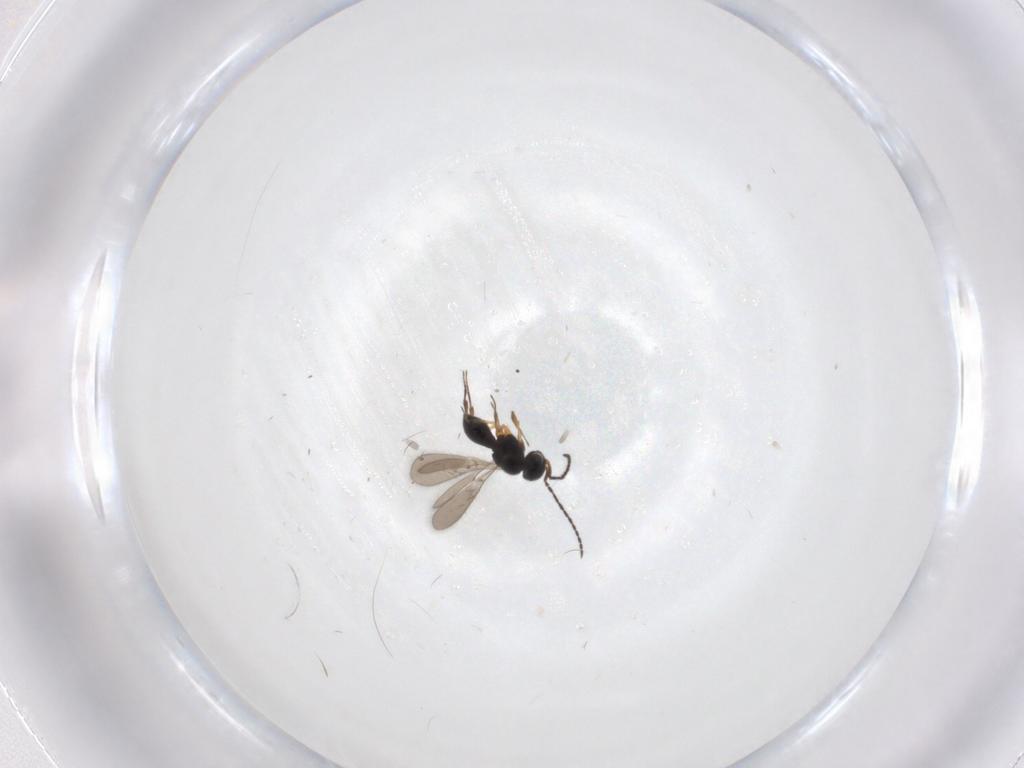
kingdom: Animalia
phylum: Arthropoda
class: Insecta
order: Hymenoptera
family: Scelionidae
